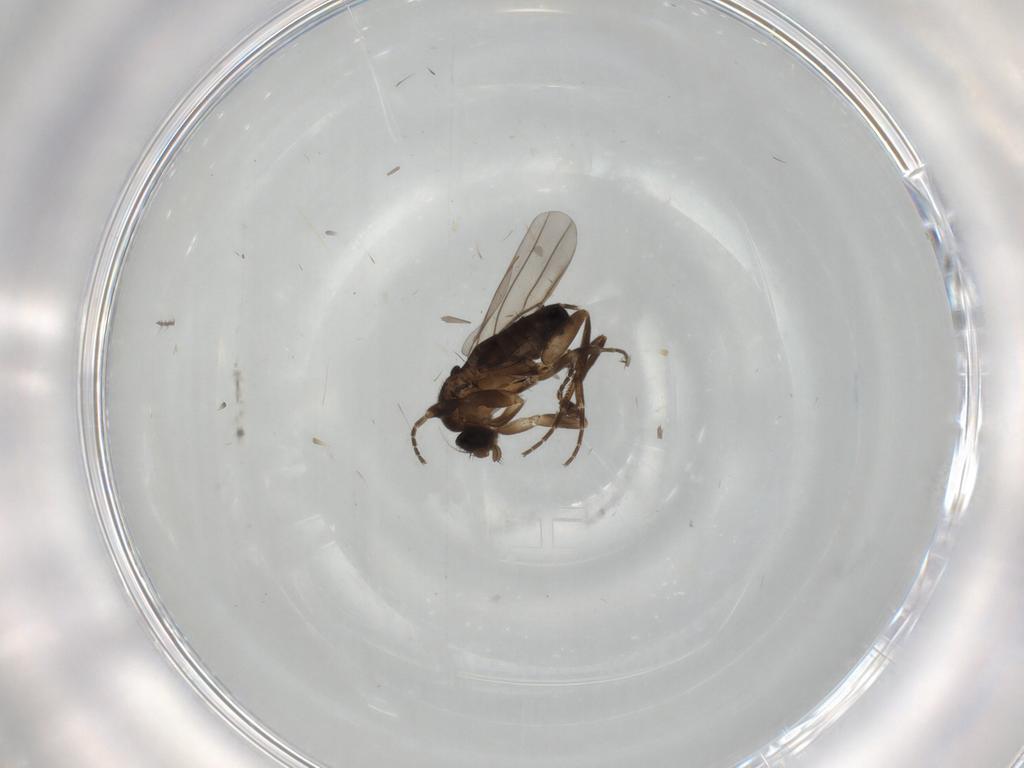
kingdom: Animalia
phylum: Arthropoda
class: Insecta
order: Diptera
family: Cecidomyiidae
